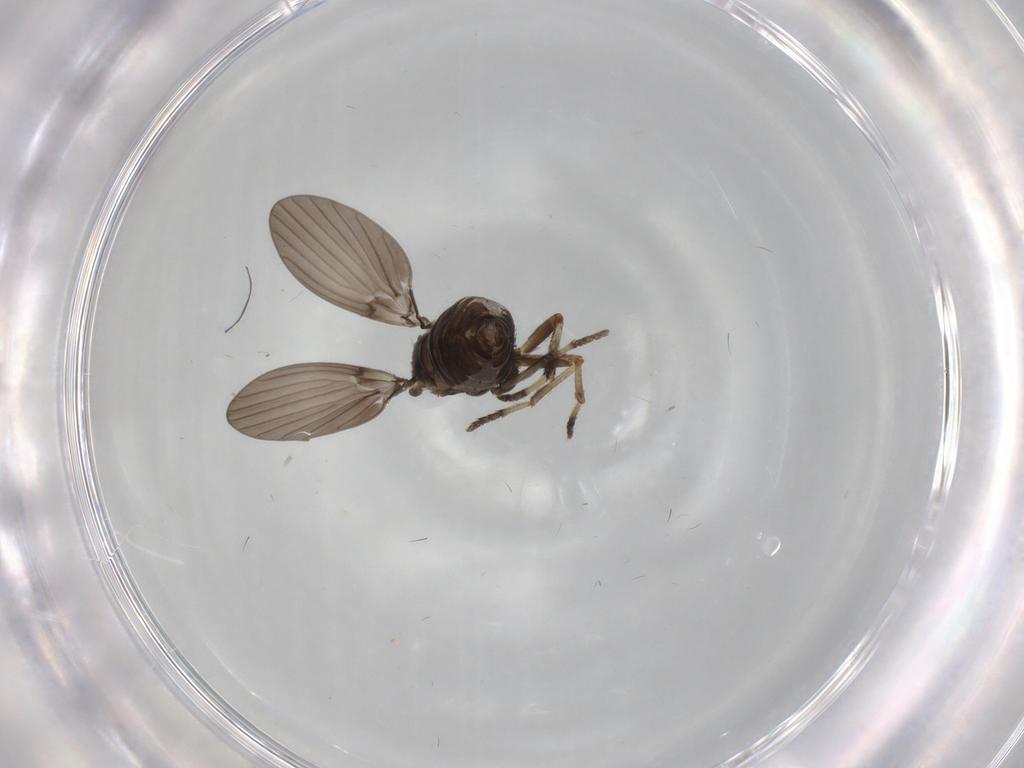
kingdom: Animalia
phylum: Arthropoda
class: Insecta
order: Diptera
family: Psychodidae
